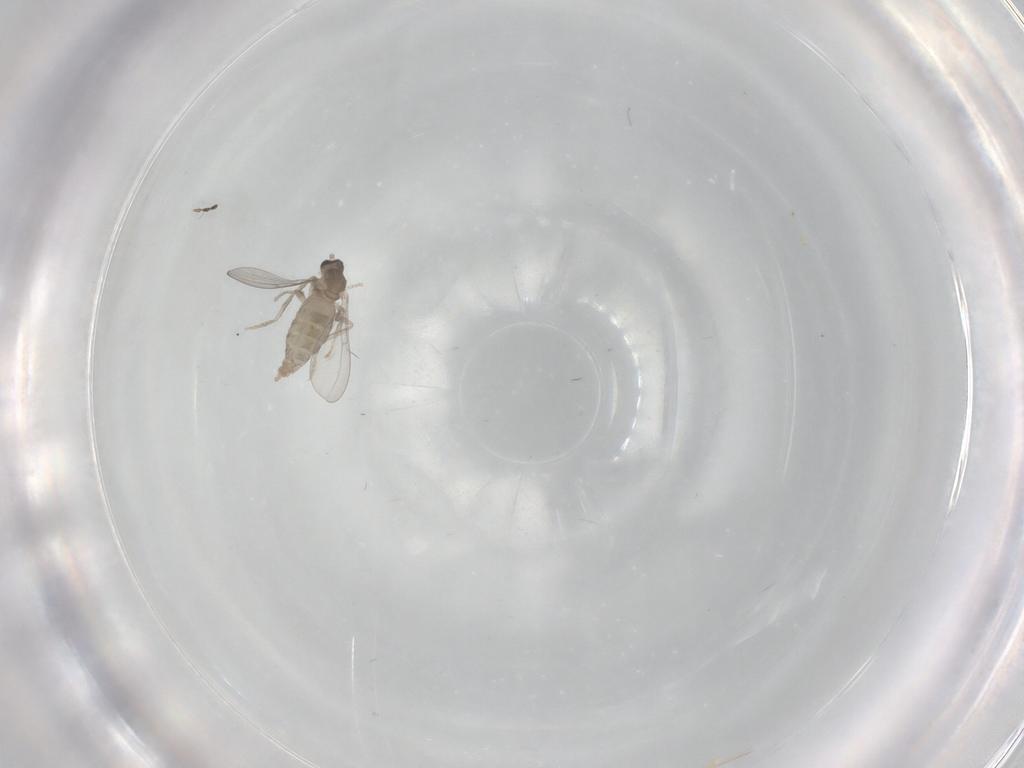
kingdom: Animalia
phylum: Arthropoda
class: Insecta
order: Diptera
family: Cecidomyiidae
